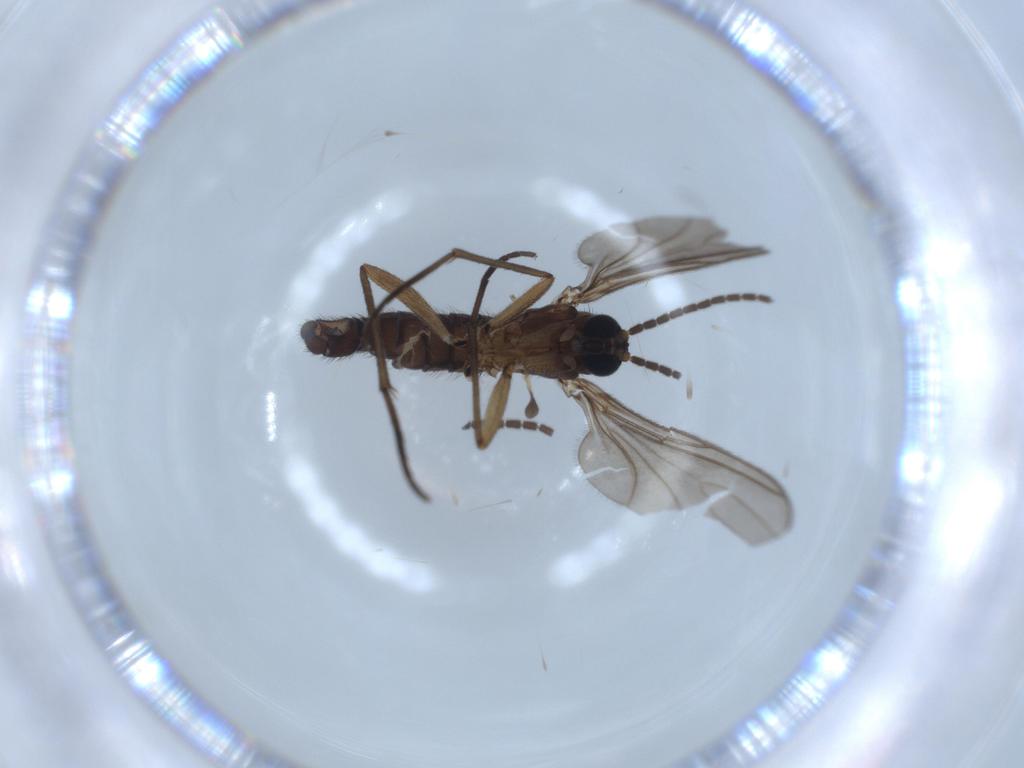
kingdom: Animalia
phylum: Arthropoda
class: Insecta
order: Diptera
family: Sciaridae
